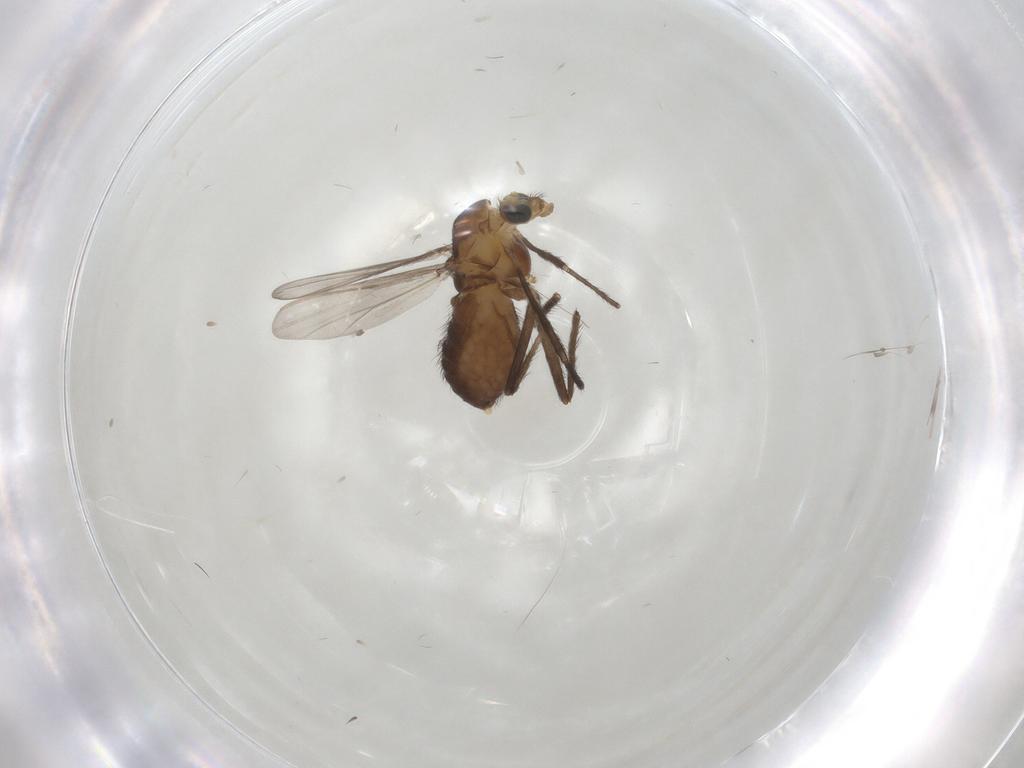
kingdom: Animalia
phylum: Arthropoda
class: Insecta
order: Diptera
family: Chironomidae
